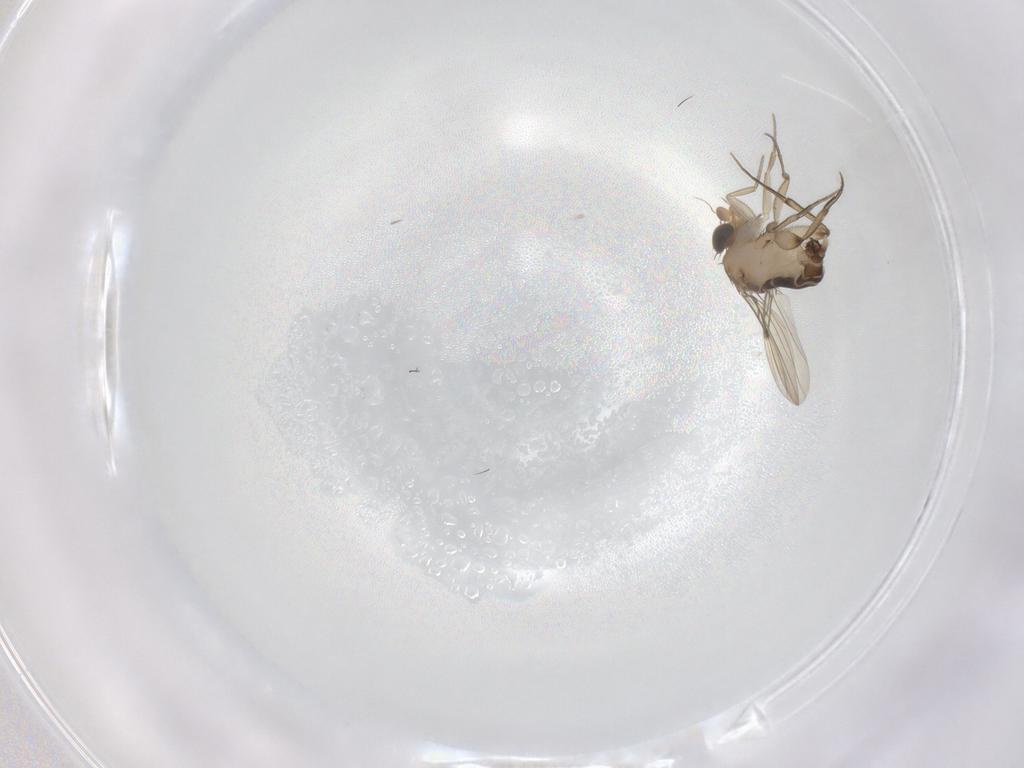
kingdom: Animalia
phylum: Arthropoda
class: Insecta
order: Diptera
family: Phoridae
